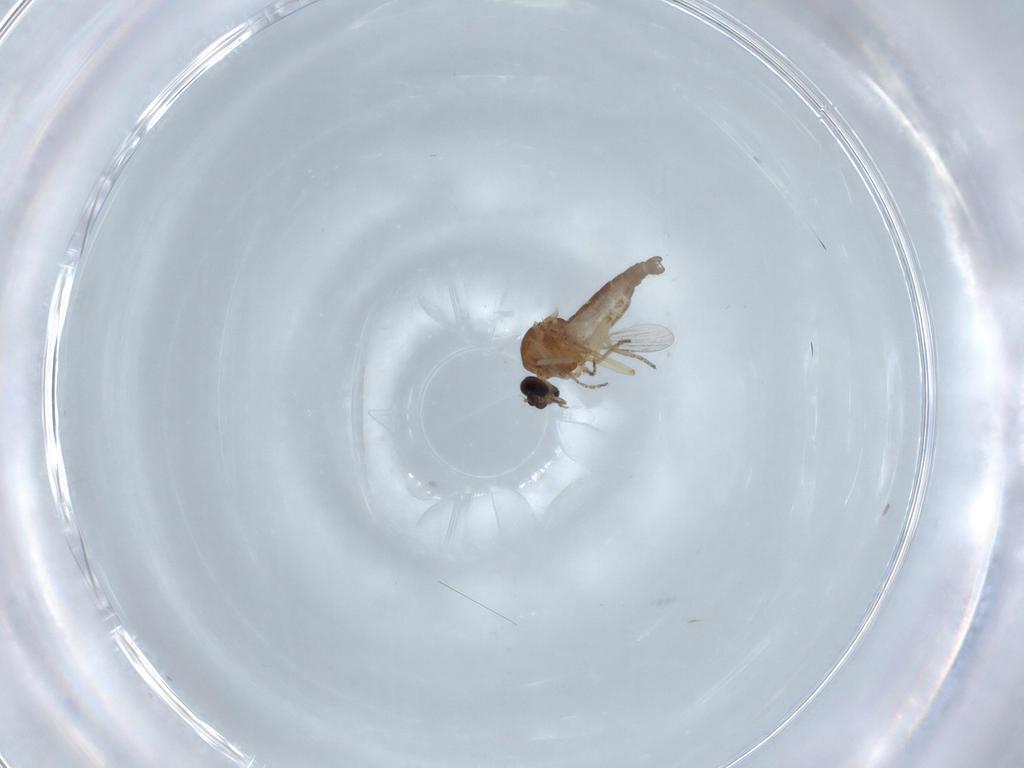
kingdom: Animalia
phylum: Arthropoda
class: Insecta
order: Diptera
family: Ceratopogonidae
